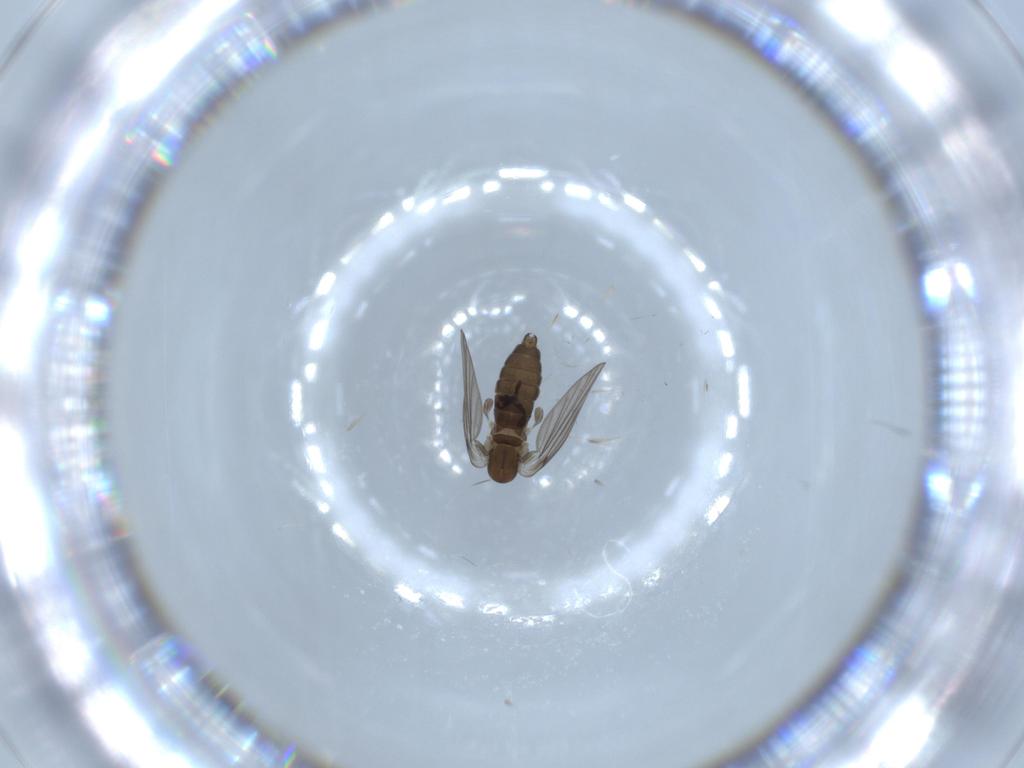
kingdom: Animalia
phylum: Arthropoda
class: Insecta
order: Diptera
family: Psychodidae
